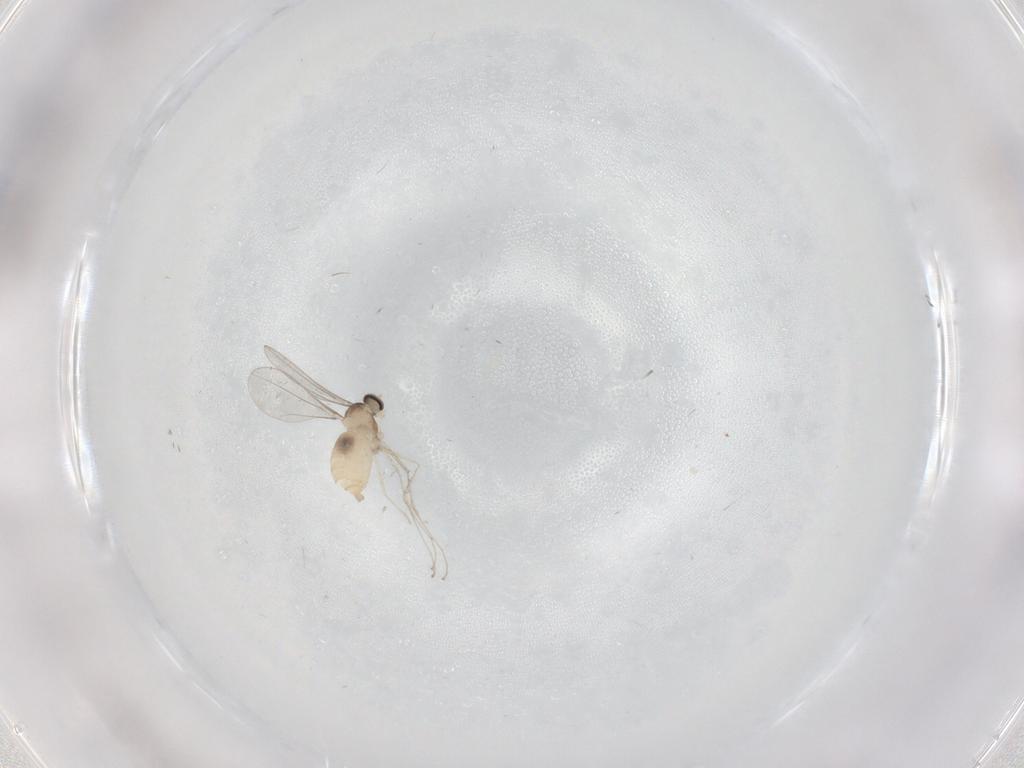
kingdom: Animalia
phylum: Arthropoda
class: Insecta
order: Diptera
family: Cecidomyiidae
